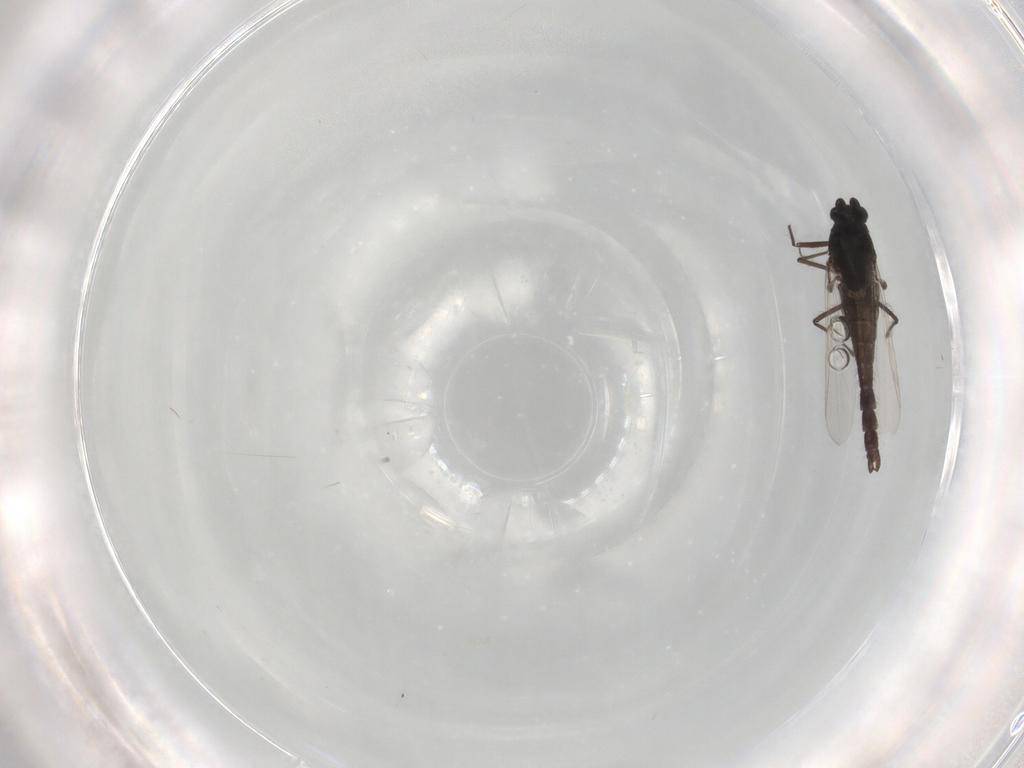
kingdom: Animalia
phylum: Arthropoda
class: Insecta
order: Diptera
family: Chironomidae
